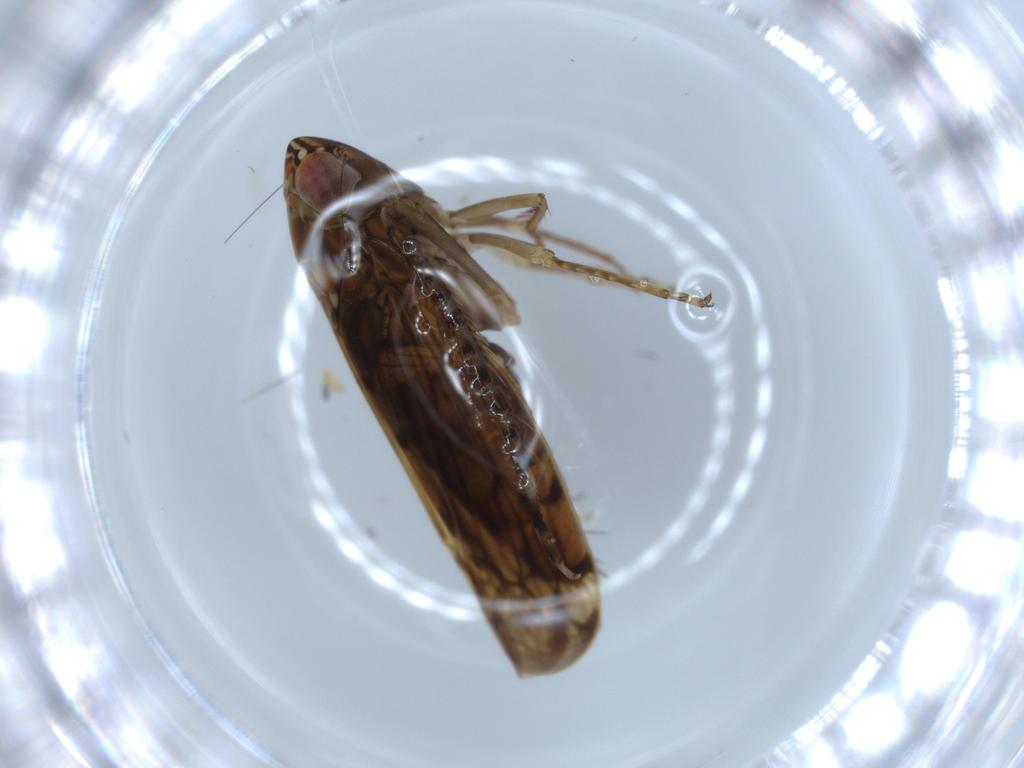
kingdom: Animalia
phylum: Arthropoda
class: Insecta
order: Hemiptera
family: Cicadellidae
